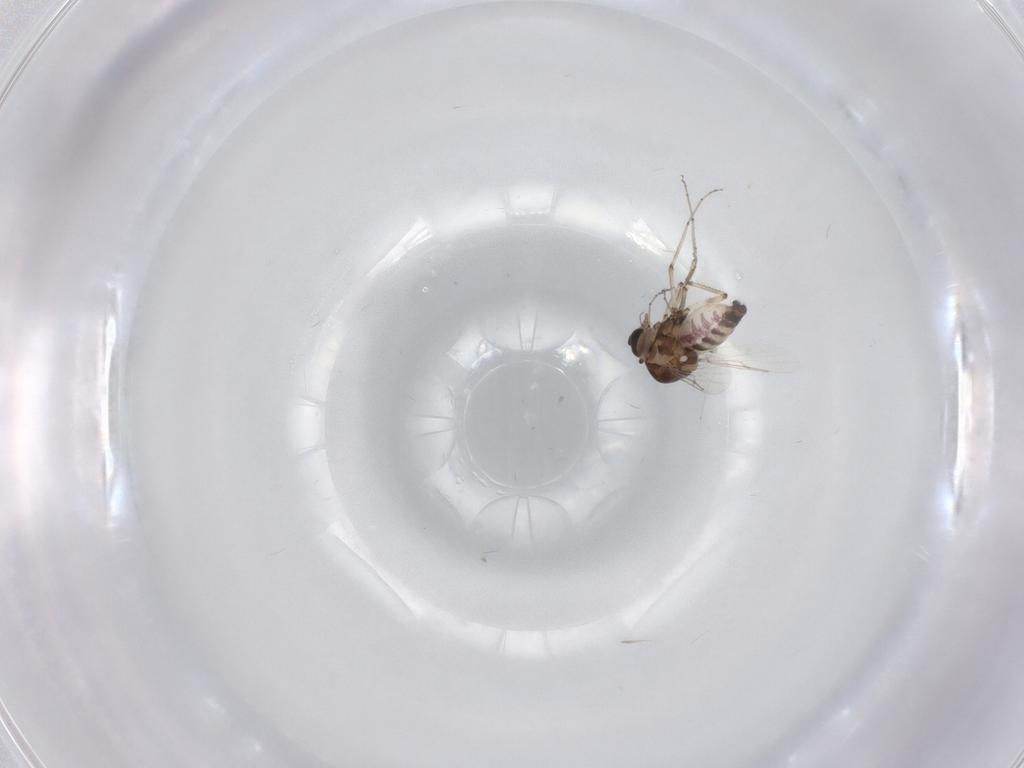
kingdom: Animalia
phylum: Arthropoda
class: Insecta
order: Diptera
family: Ceratopogonidae
